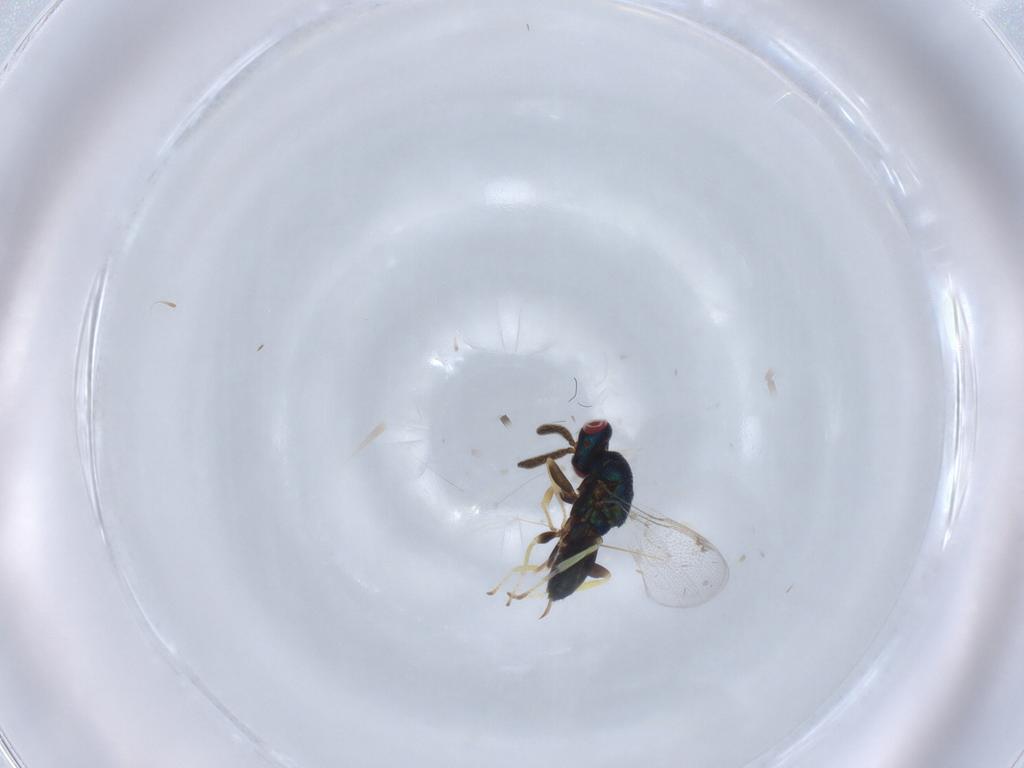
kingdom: Animalia
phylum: Arthropoda
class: Insecta
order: Hymenoptera
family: Torymidae
